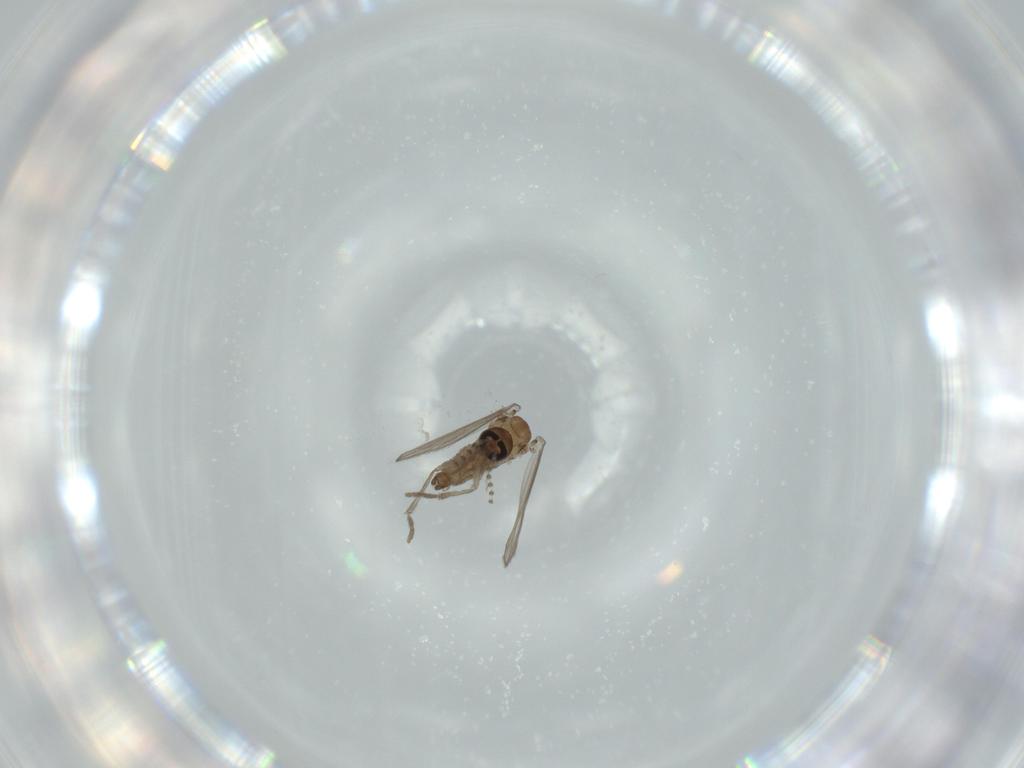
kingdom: Animalia
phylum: Arthropoda
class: Insecta
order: Diptera
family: Psychodidae
